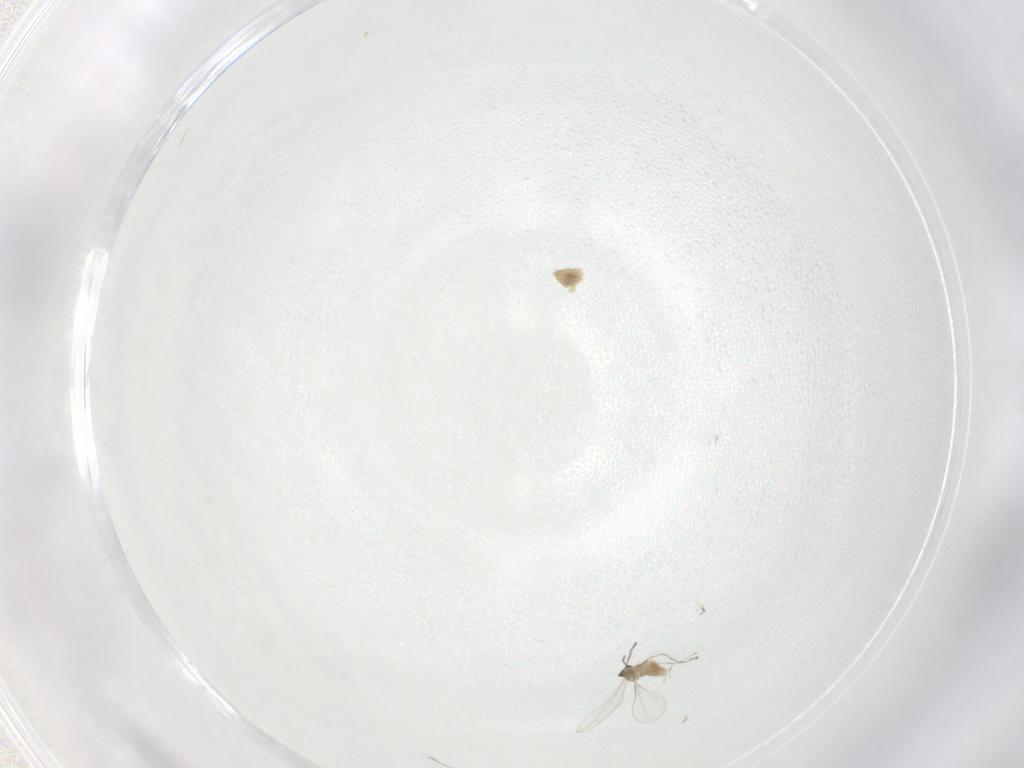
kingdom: Animalia
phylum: Arthropoda
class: Insecta
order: Diptera
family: Cecidomyiidae
